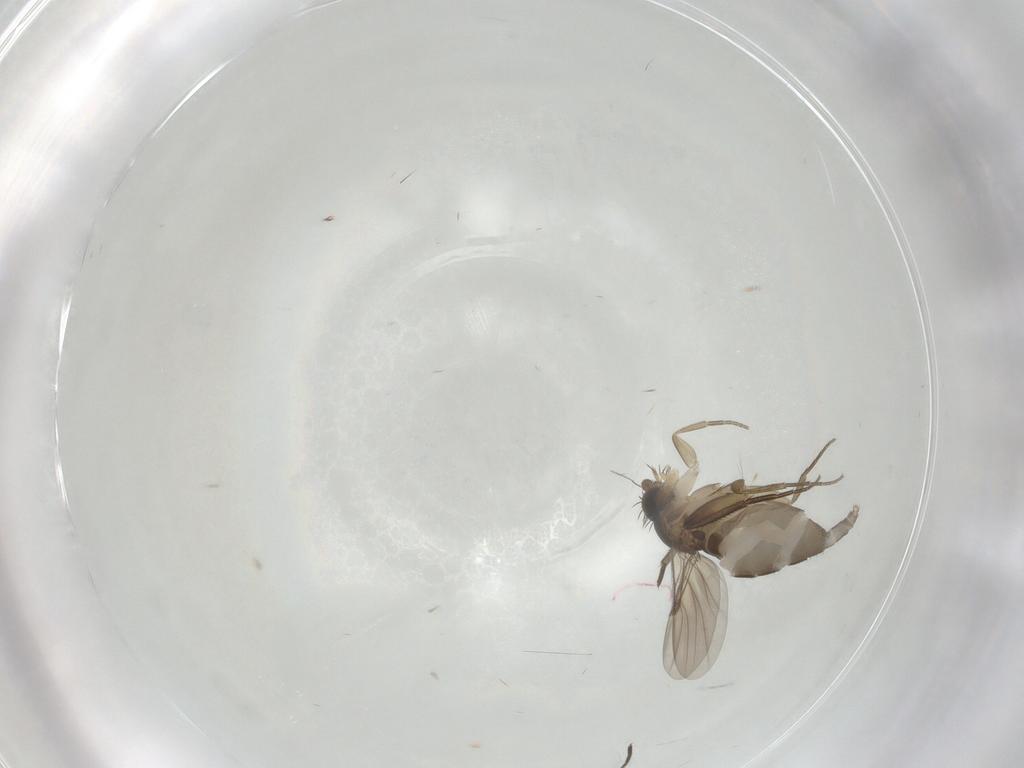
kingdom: Animalia
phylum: Arthropoda
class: Insecta
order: Diptera
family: Phoridae
